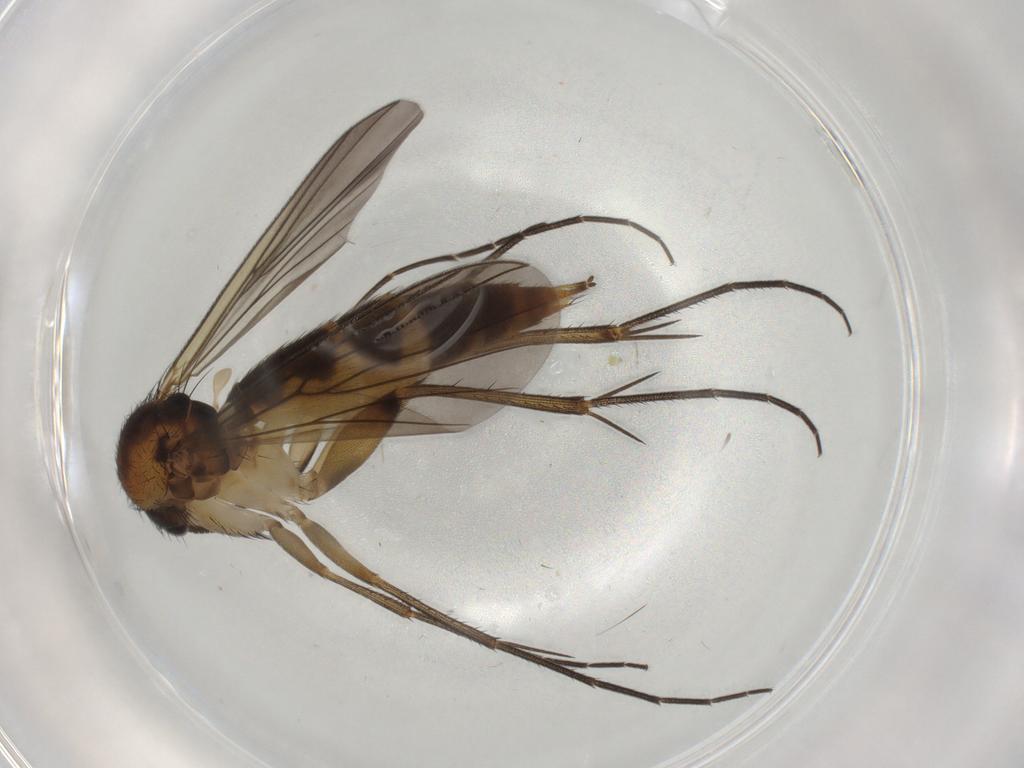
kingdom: Animalia
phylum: Arthropoda
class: Insecta
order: Diptera
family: Mycetophilidae
